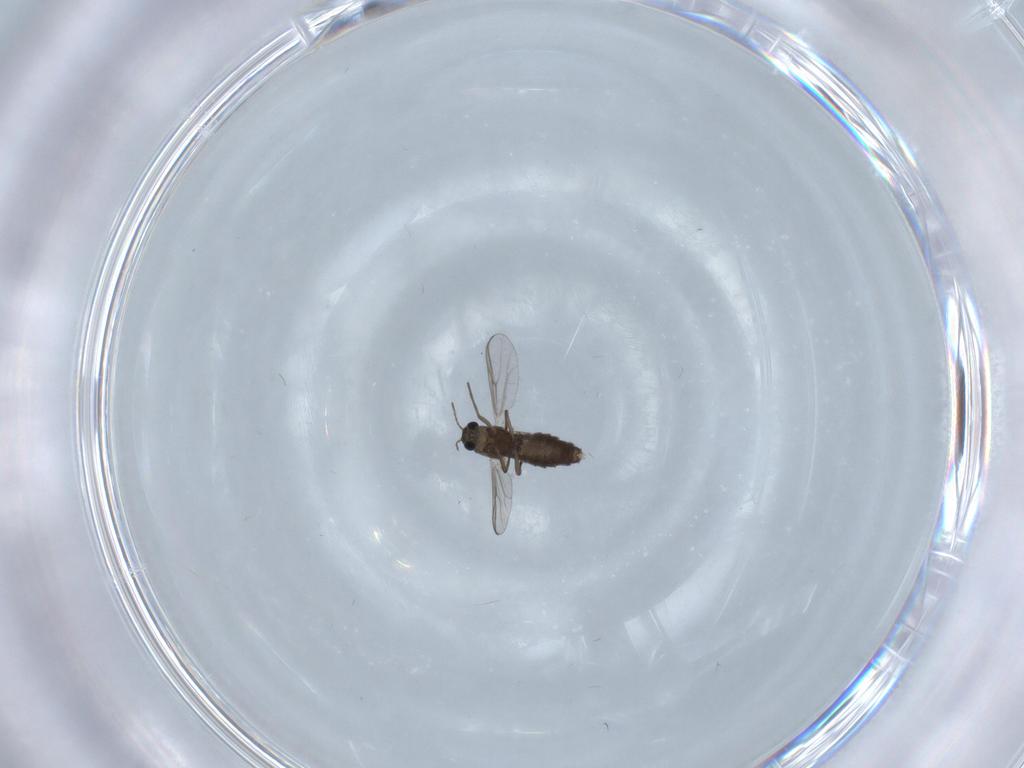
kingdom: Animalia
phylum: Arthropoda
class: Insecta
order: Diptera
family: Chironomidae
